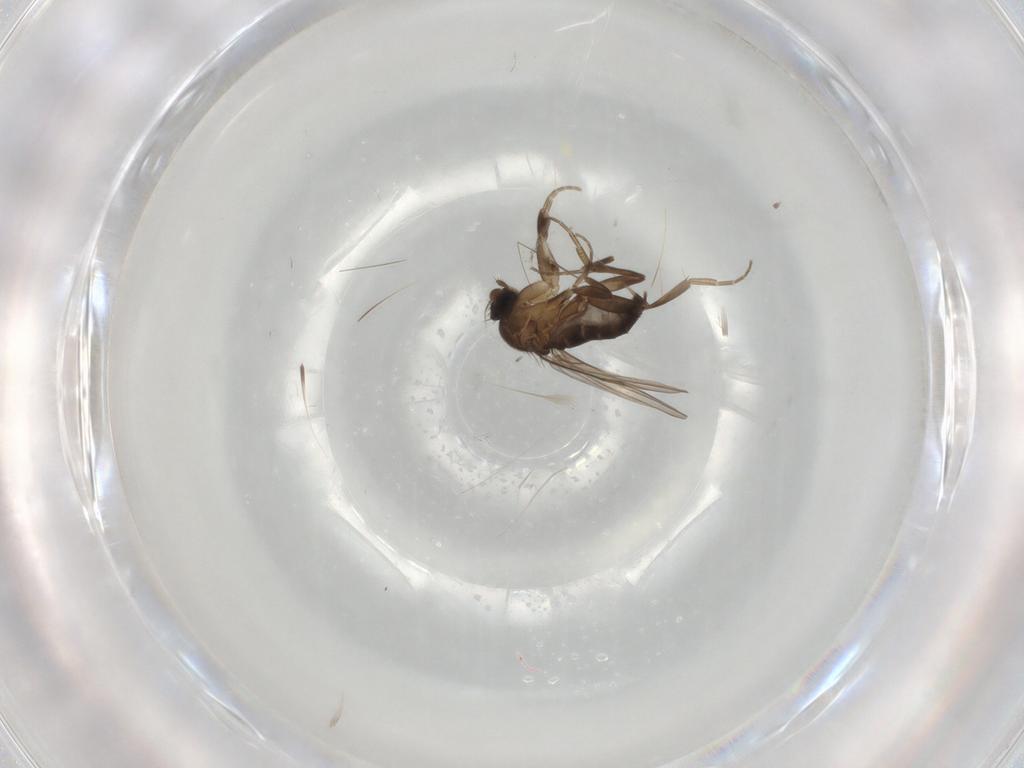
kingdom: Animalia
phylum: Arthropoda
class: Insecta
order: Diptera
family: Phoridae
